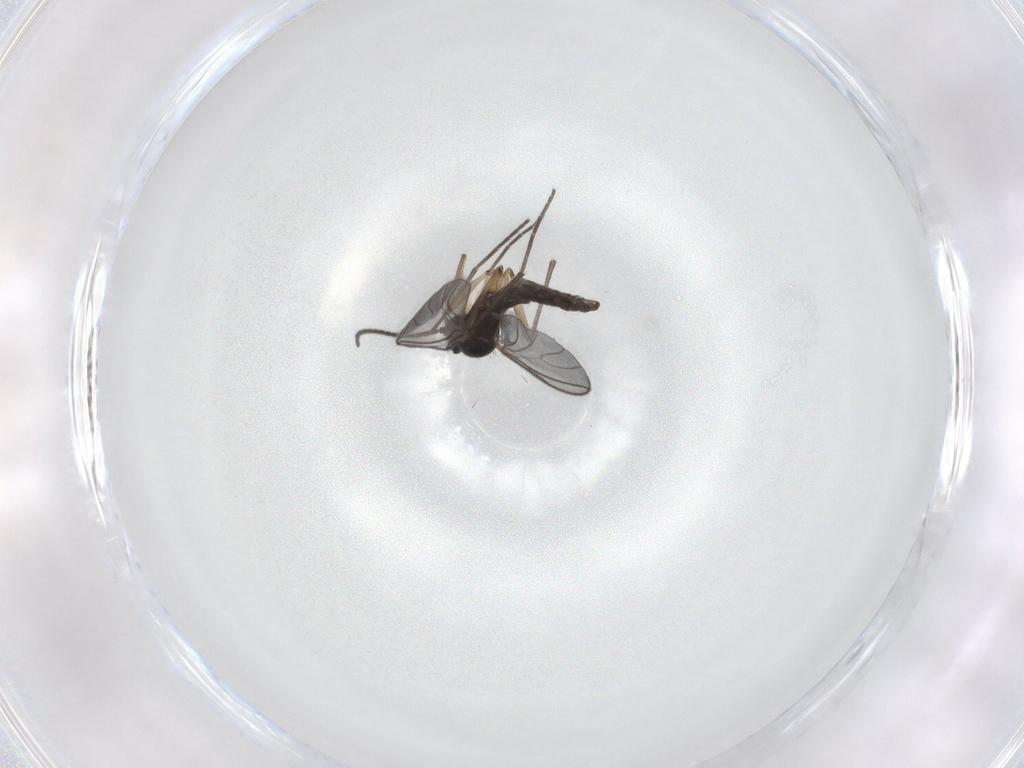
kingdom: Animalia
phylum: Arthropoda
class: Insecta
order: Diptera
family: Sciaridae
